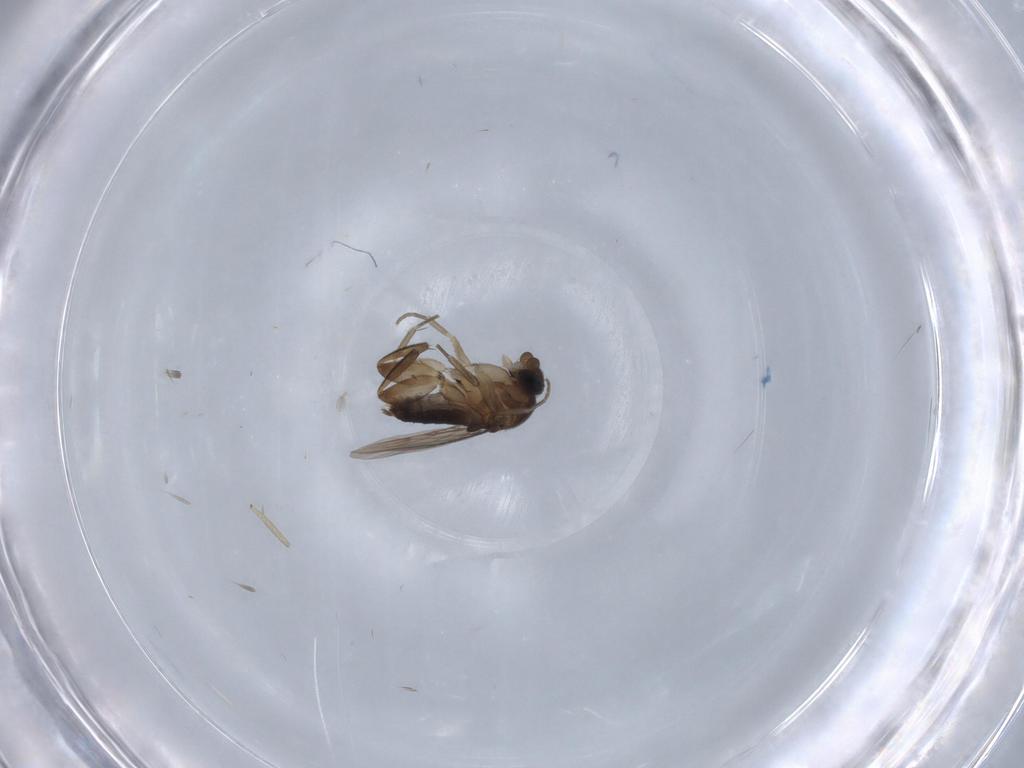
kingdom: Animalia
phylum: Arthropoda
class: Insecta
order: Diptera
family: Phoridae
